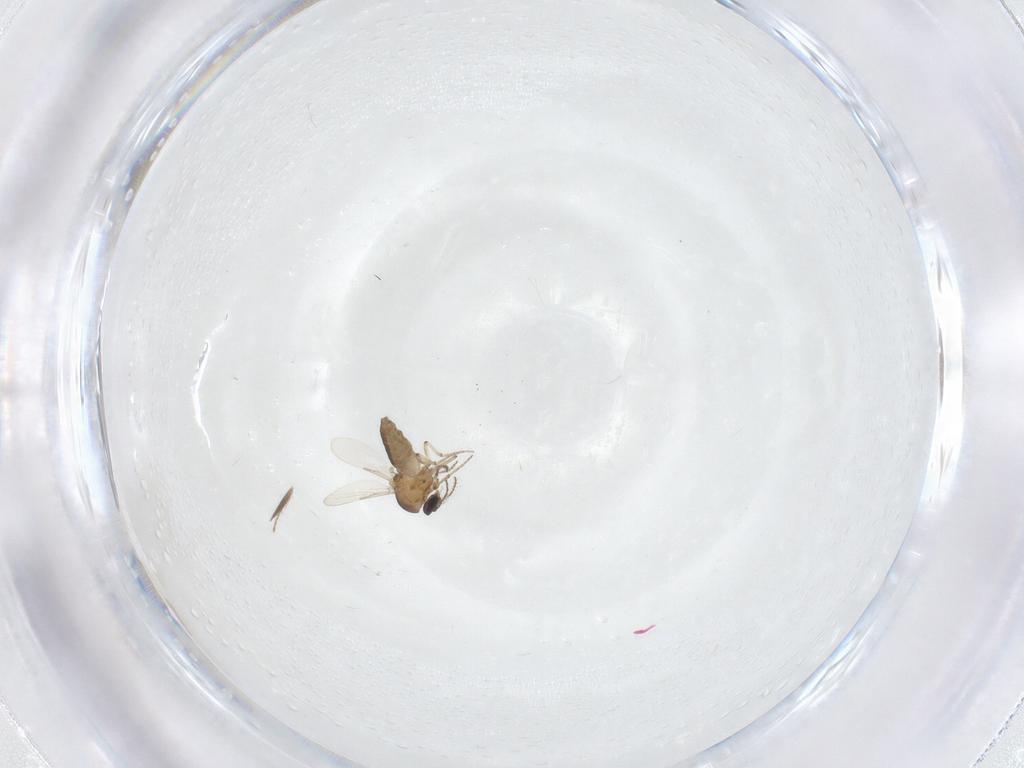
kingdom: Animalia
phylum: Arthropoda
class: Insecta
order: Diptera
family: Ceratopogonidae
